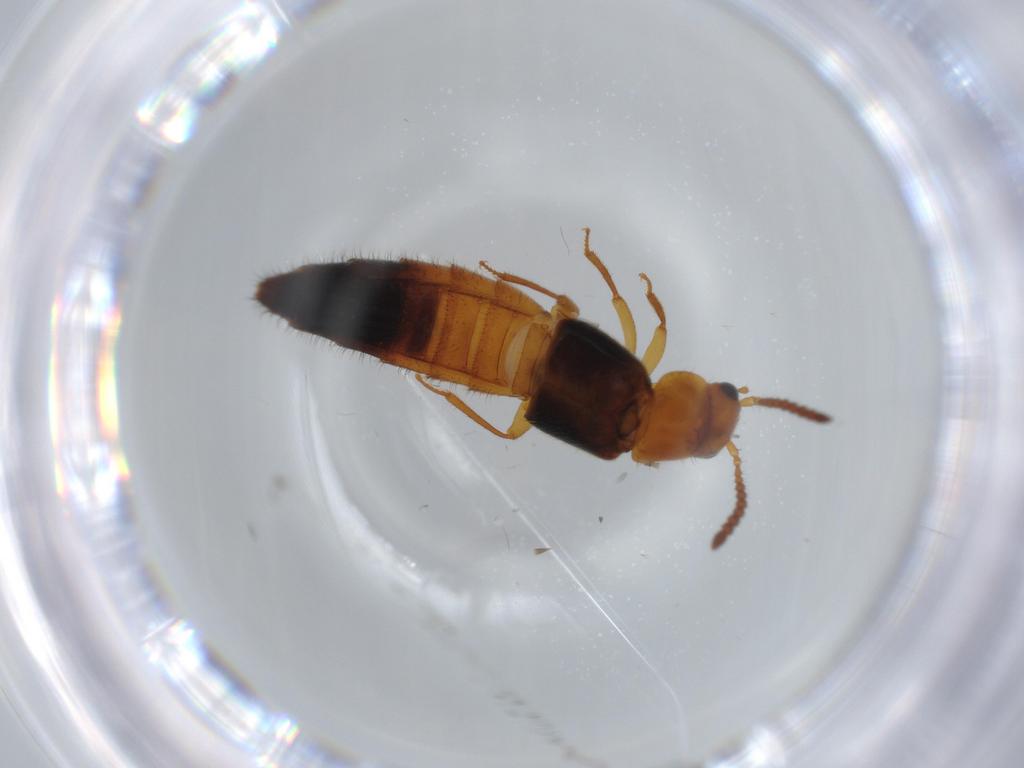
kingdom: Animalia
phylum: Arthropoda
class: Insecta
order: Coleoptera
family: Staphylinidae
